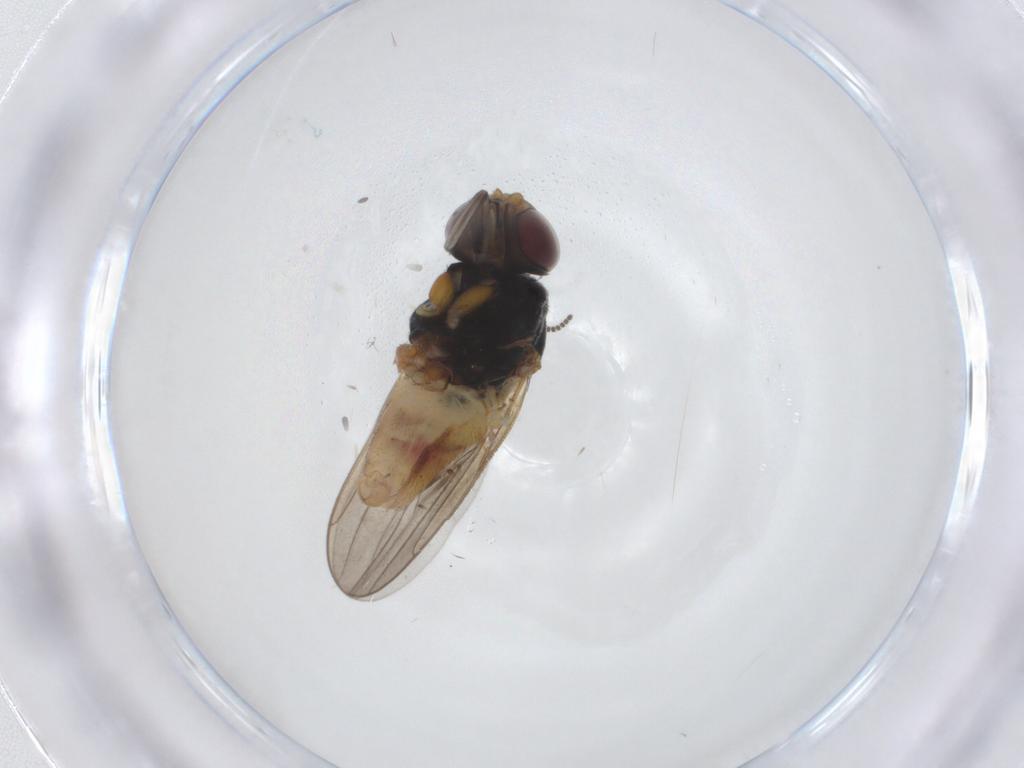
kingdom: Animalia
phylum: Arthropoda
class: Insecta
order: Diptera
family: Chloropidae
